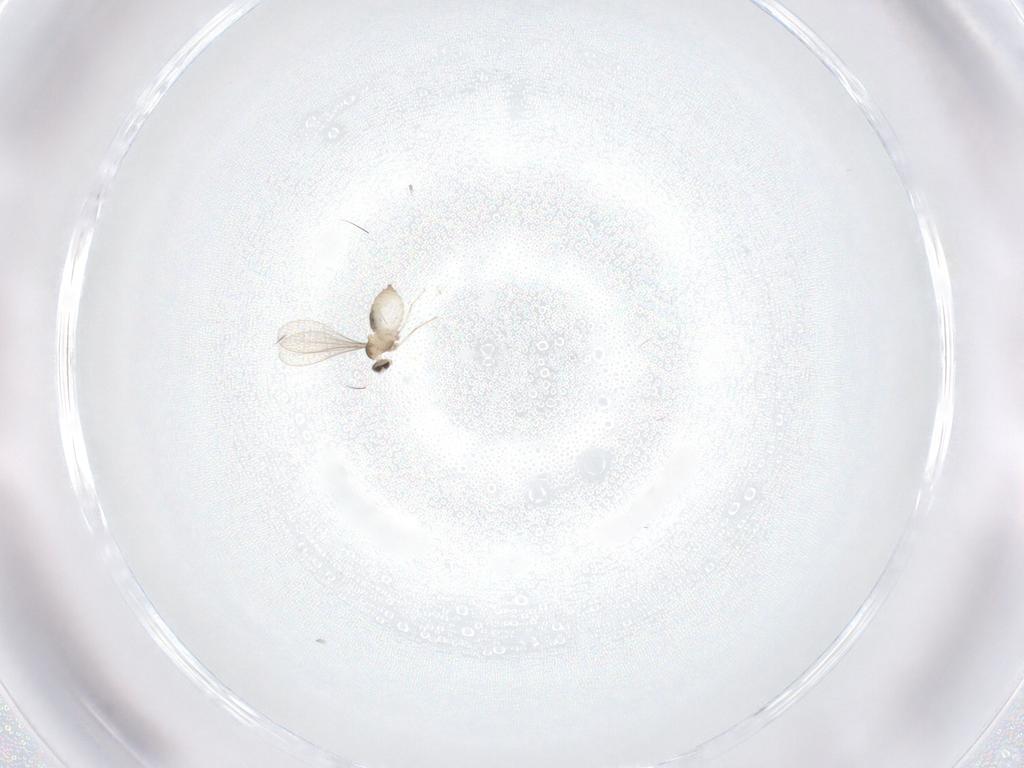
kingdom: Animalia
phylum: Arthropoda
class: Insecta
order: Diptera
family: Cecidomyiidae
